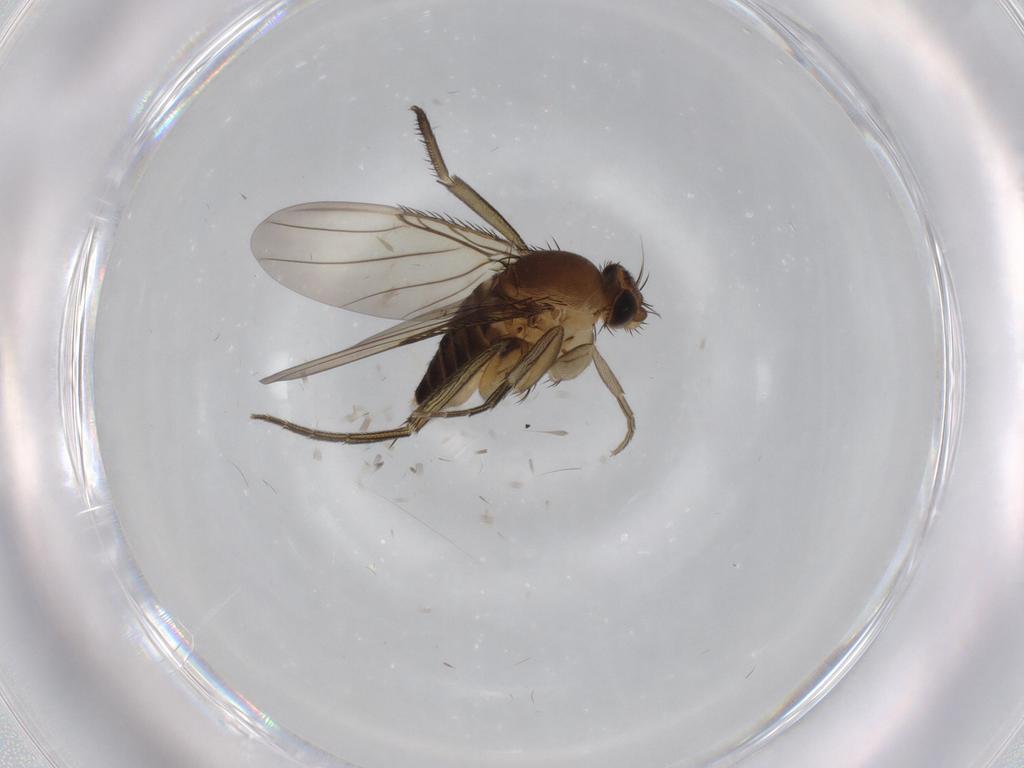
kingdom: Animalia
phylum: Arthropoda
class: Insecta
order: Diptera
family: Phoridae
